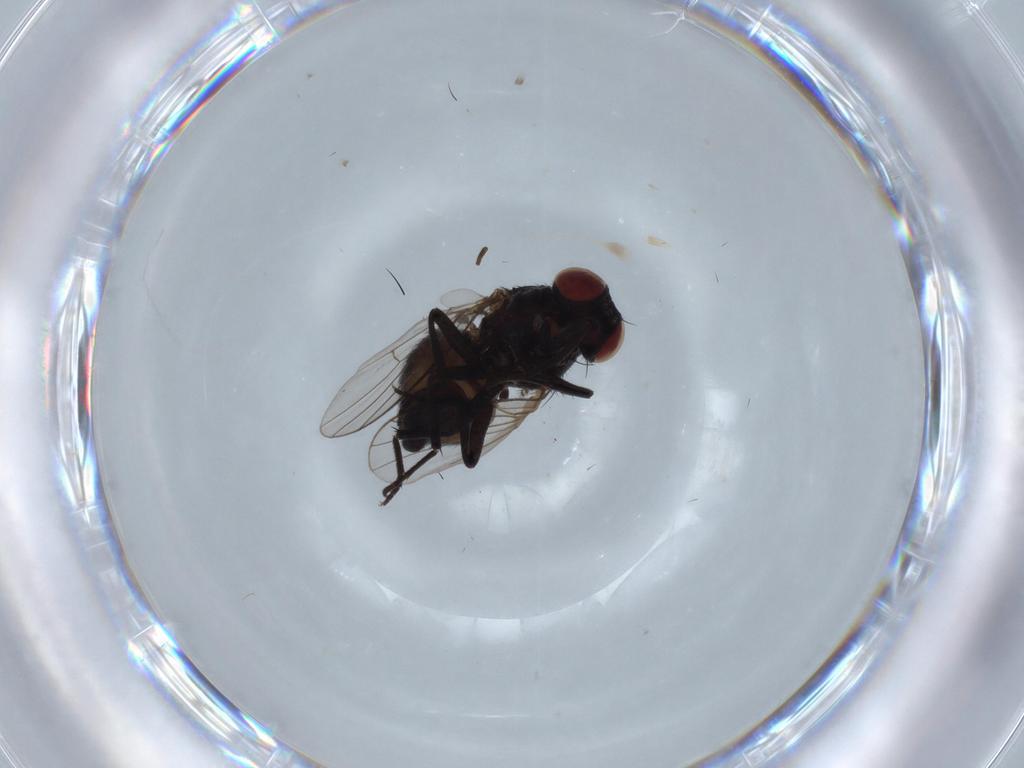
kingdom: Animalia
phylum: Arthropoda
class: Insecta
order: Diptera
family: Agromyzidae
